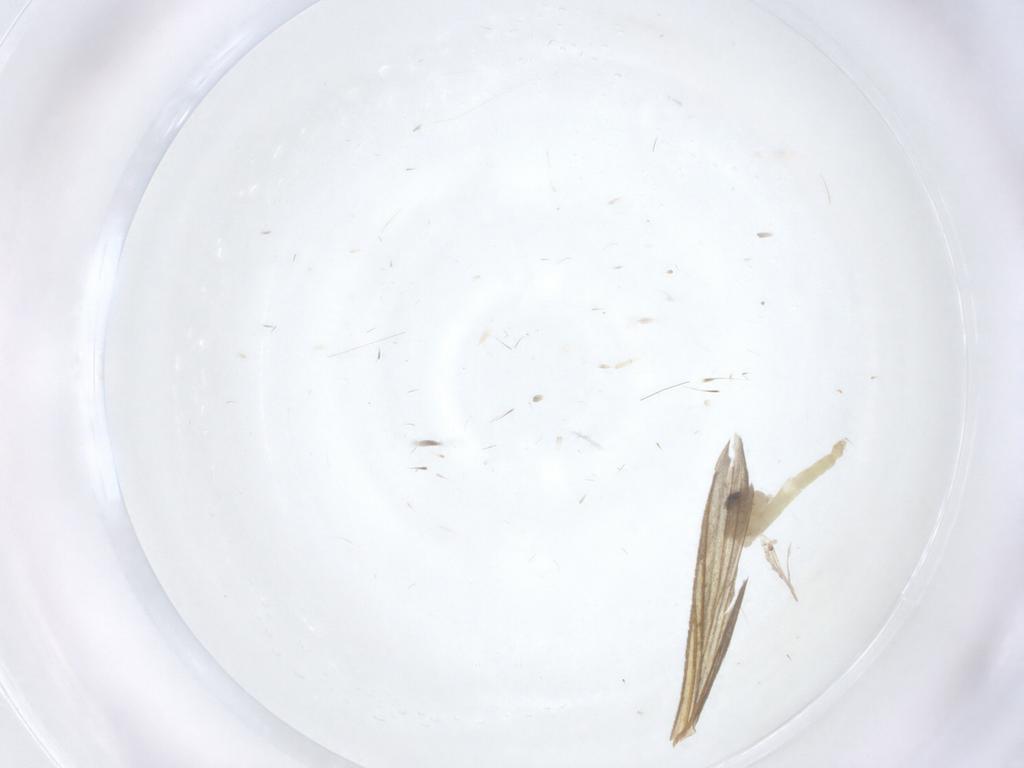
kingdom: Animalia
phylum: Arthropoda
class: Insecta
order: Diptera
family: Chironomidae
